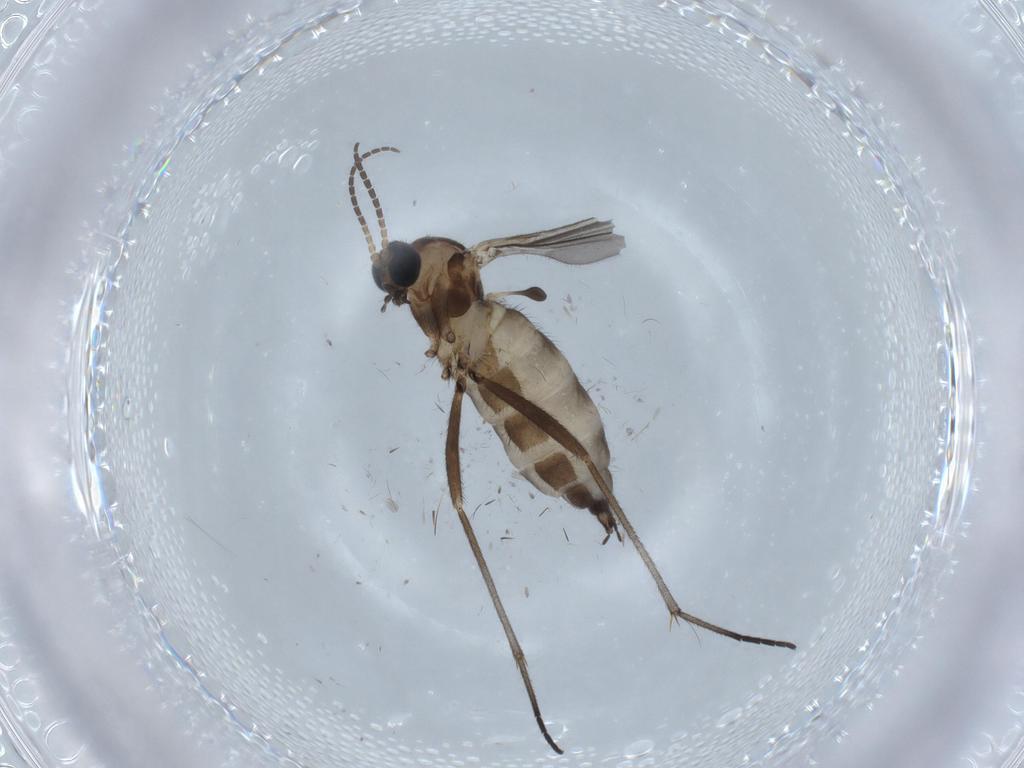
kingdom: Animalia
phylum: Arthropoda
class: Insecta
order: Diptera
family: Sciaridae
